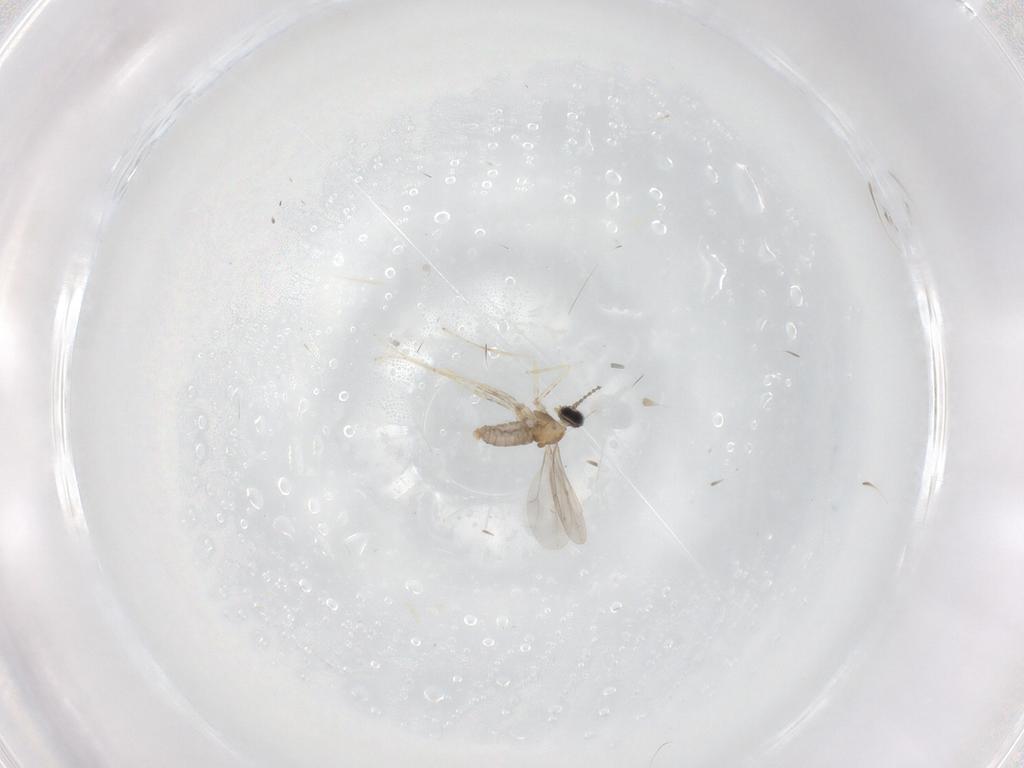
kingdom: Animalia
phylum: Arthropoda
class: Insecta
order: Diptera
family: Cecidomyiidae
